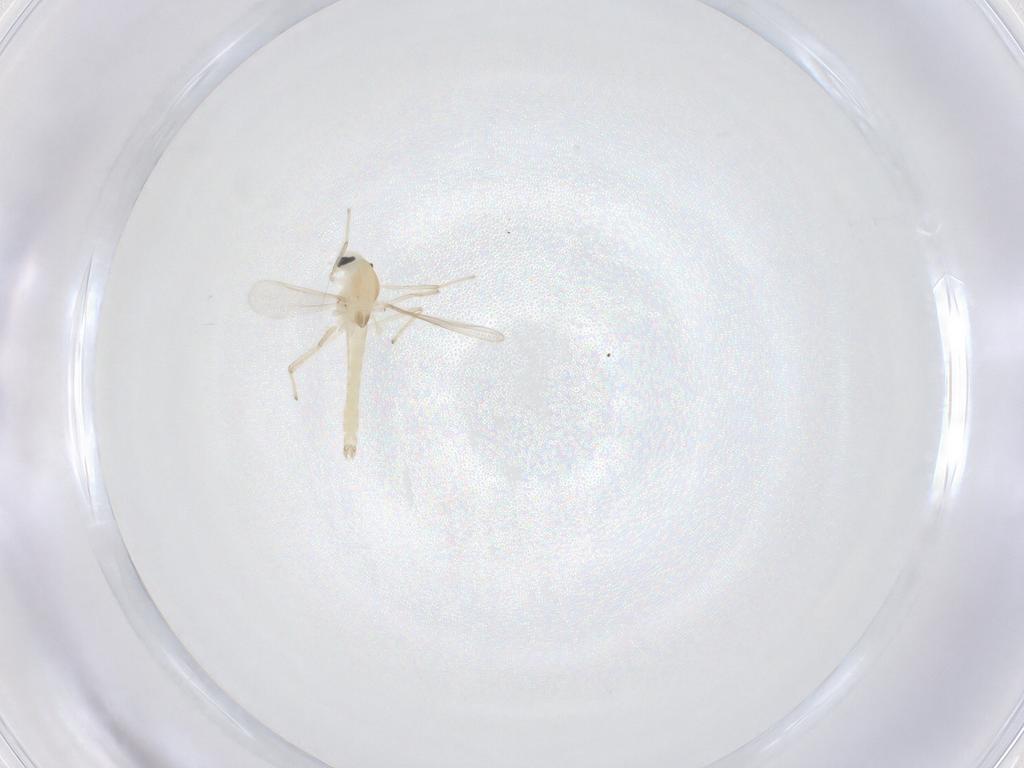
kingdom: Animalia
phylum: Arthropoda
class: Insecta
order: Diptera
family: Chironomidae
